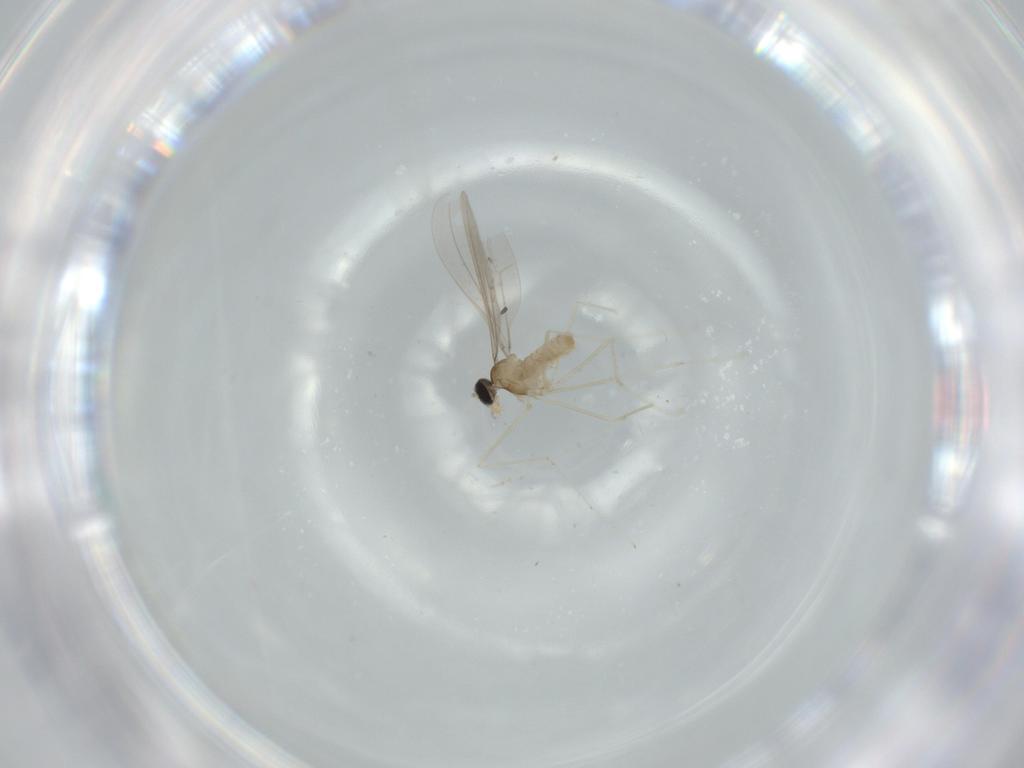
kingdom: Animalia
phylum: Arthropoda
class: Insecta
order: Diptera
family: Cecidomyiidae
